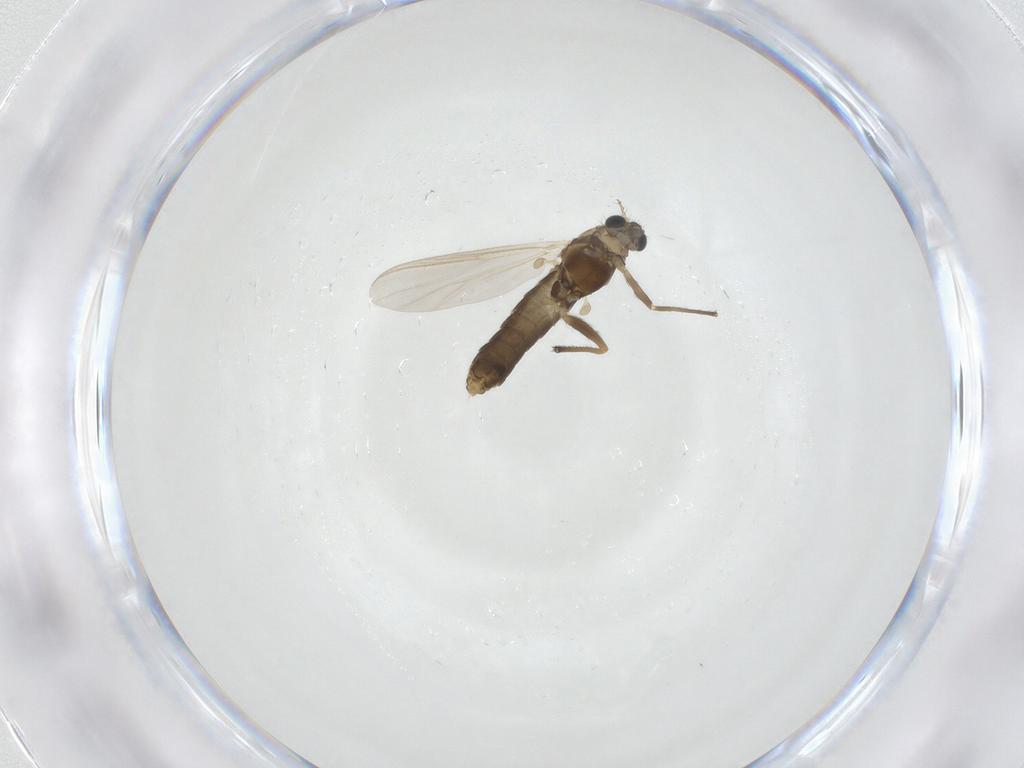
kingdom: Animalia
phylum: Arthropoda
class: Insecta
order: Diptera
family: Chironomidae
